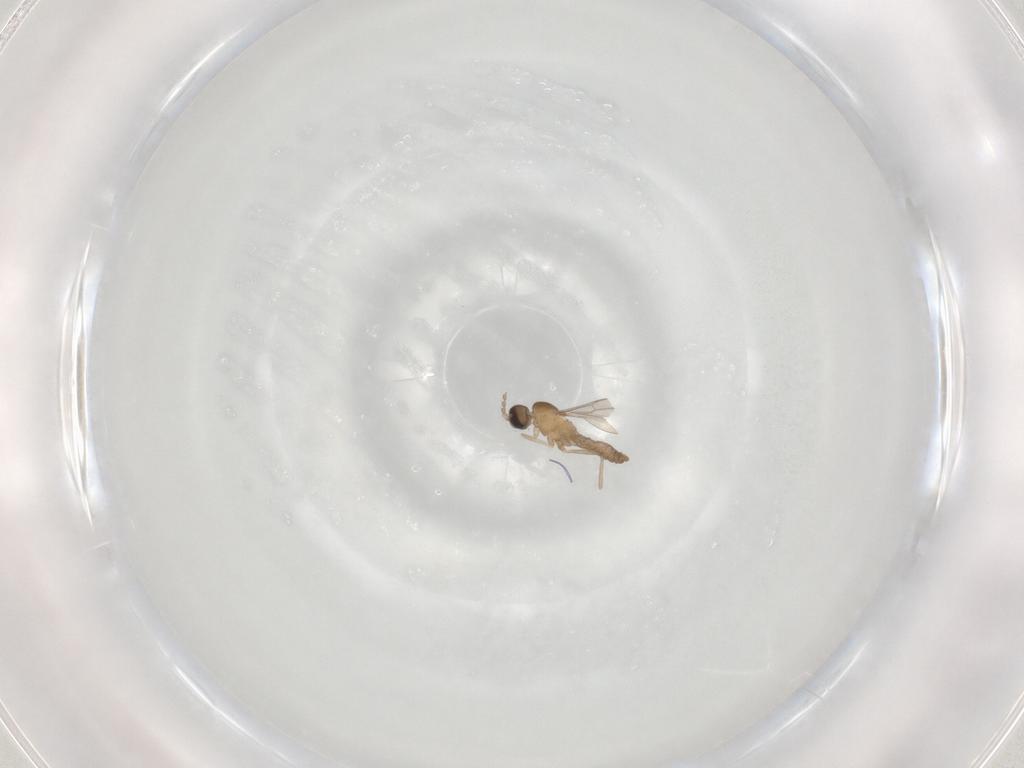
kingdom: Animalia
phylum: Arthropoda
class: Insecta
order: Diptera
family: Cecidomyiidae
